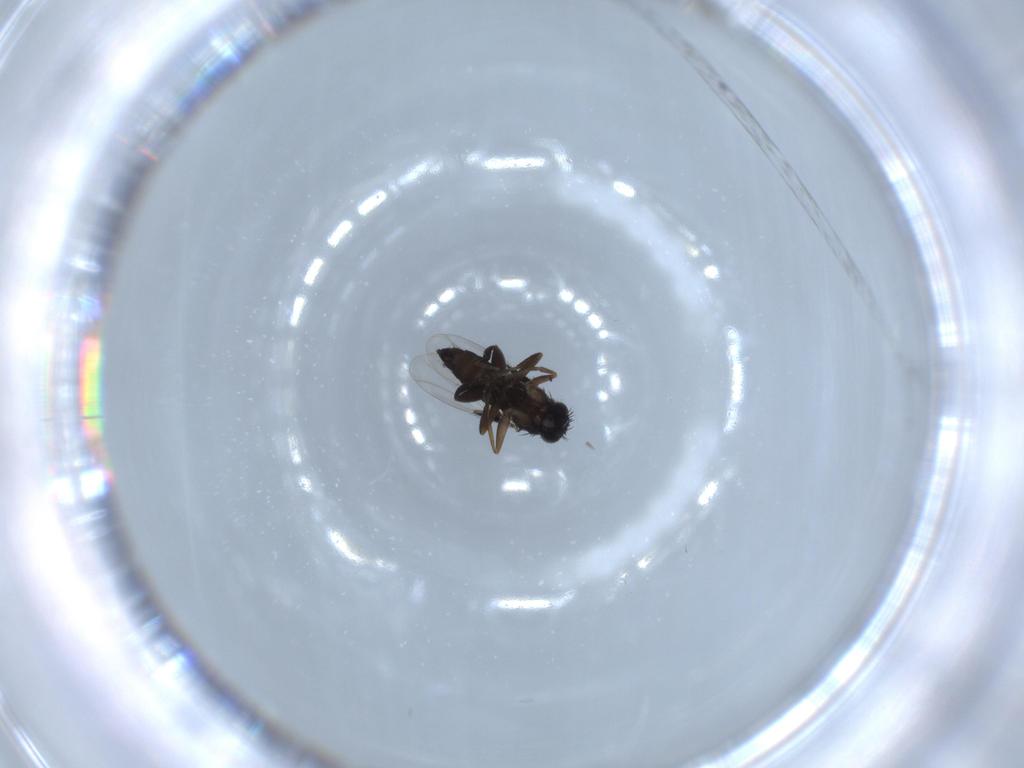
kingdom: Animalia
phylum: Arthropoda
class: Insecta
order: Diptera
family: Phoridae
